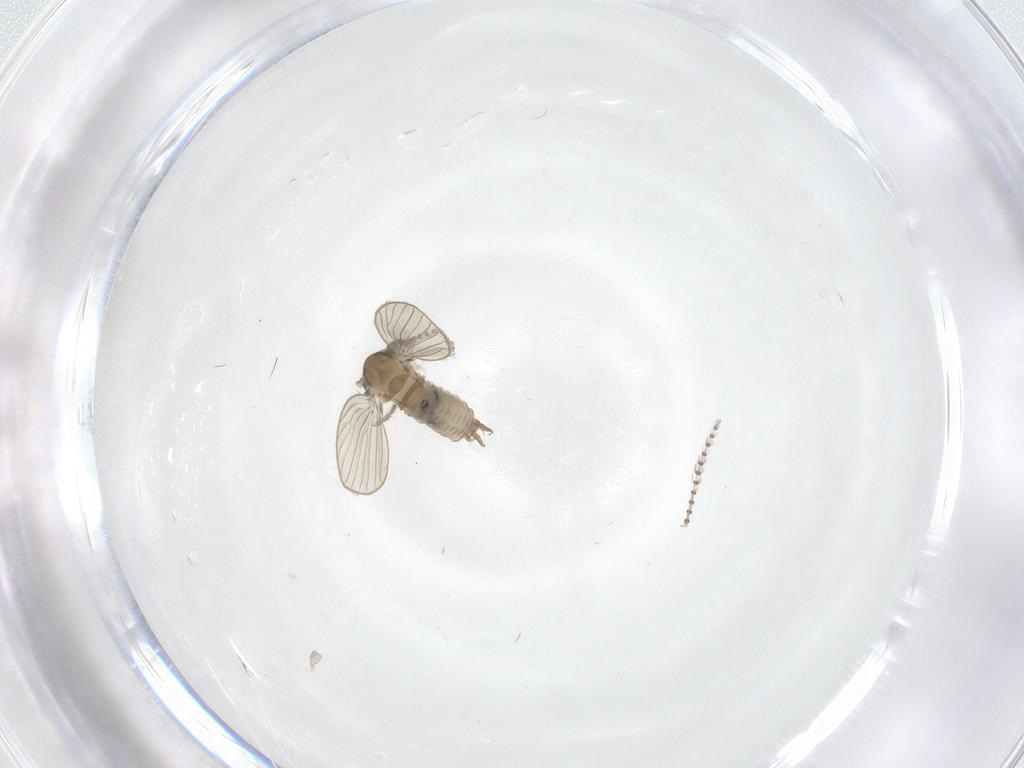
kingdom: Animalia
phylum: Arthropoda
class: Insecta
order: Diptera
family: Psychodidae
